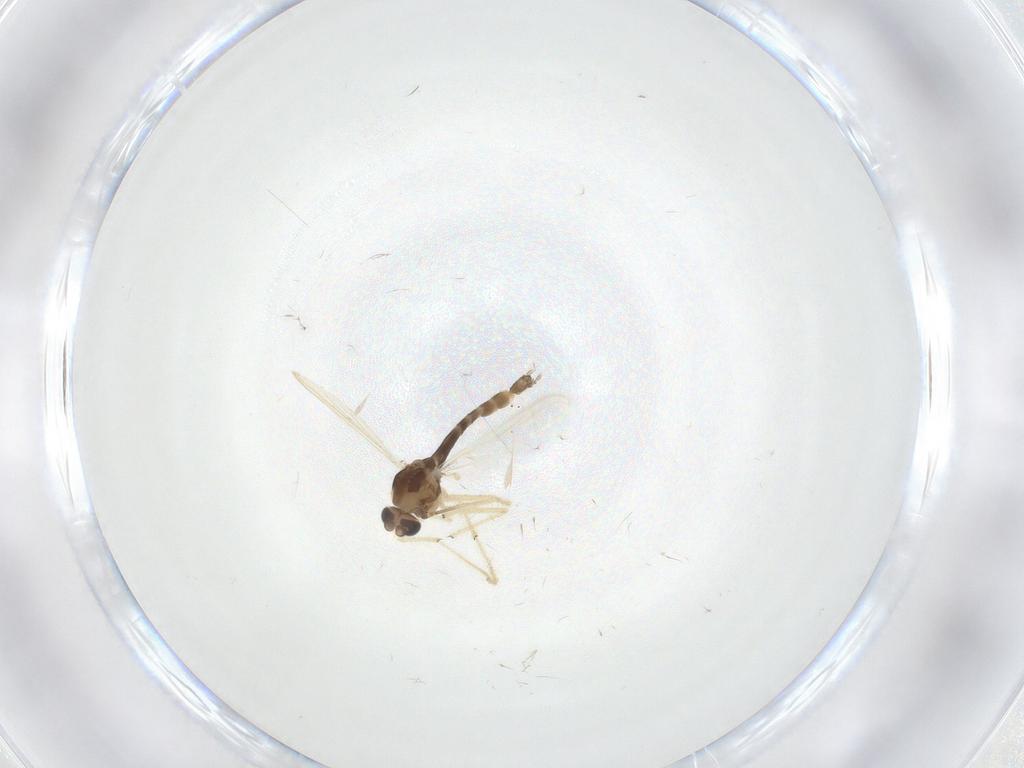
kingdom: Animalia
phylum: Arthropoda
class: Insecta
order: Diptera
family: Chironomidae
